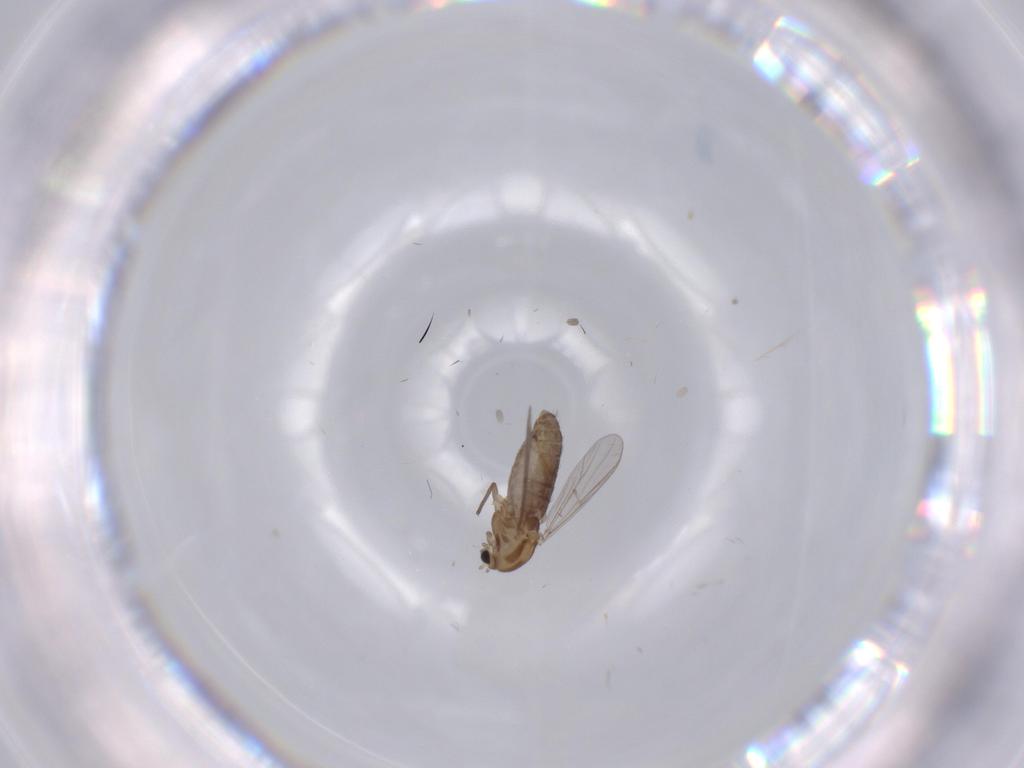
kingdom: Animalia
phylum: Arthropoda
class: Insecta
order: Diptera
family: Chironomidae
